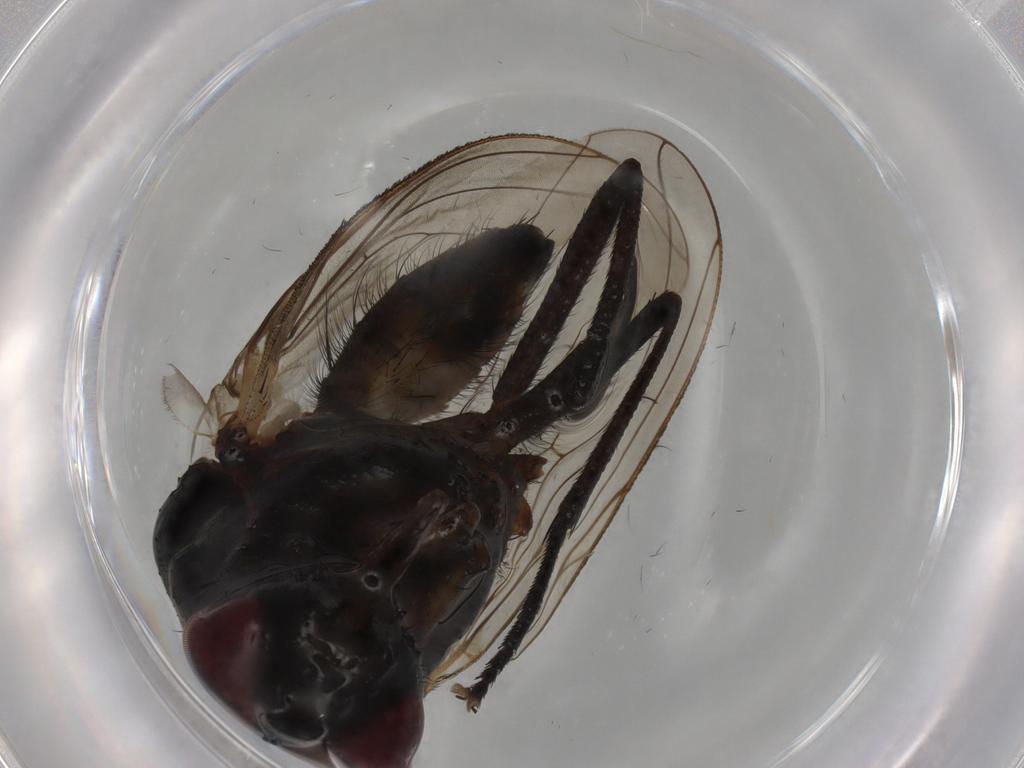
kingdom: Animalia
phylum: Arthropoda
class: Insecta
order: Diptera
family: Anthomyiidae
